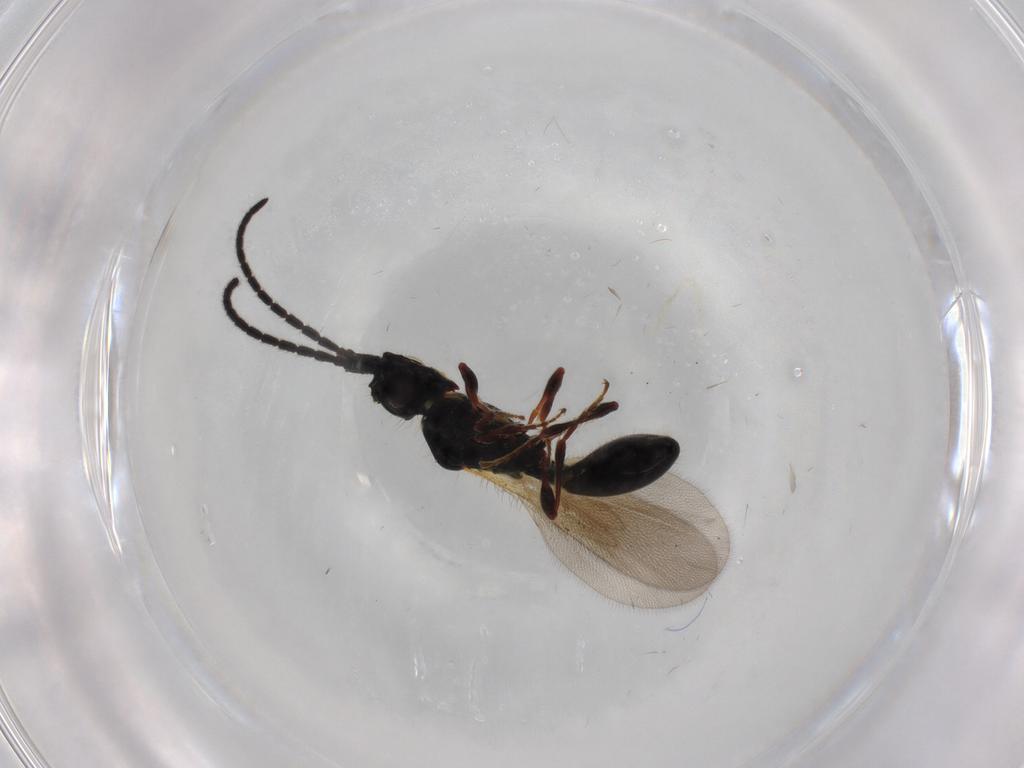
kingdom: Animalia
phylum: Arthropoda
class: Insecta
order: Hymenoptera
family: Diapriidae
